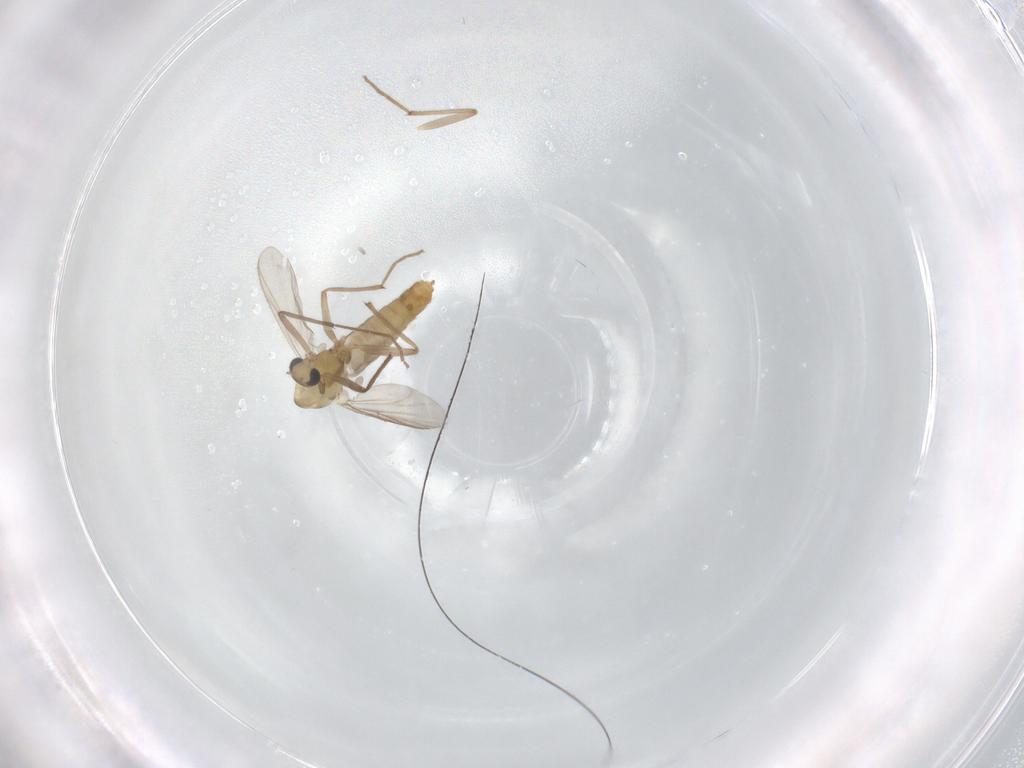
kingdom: Animalia
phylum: Arthropoda
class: Insecta
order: Diptera
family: Chironomidae
